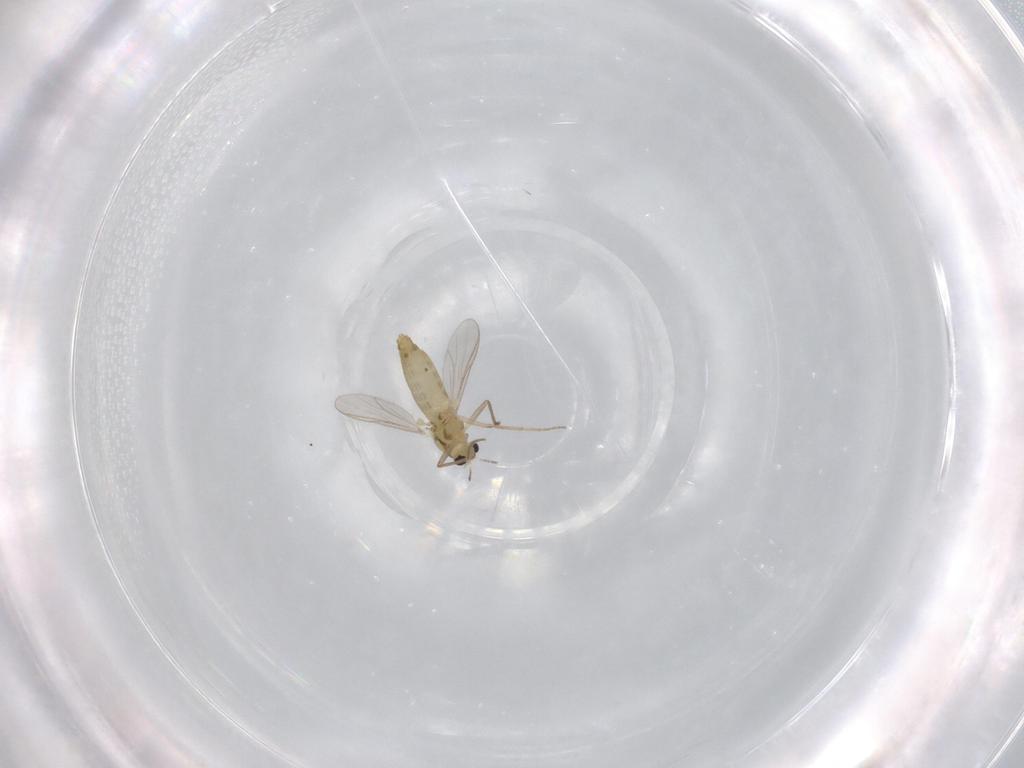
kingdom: Animalia
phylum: Arthropoda
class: Insecta
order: Diptera
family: Chironomidae
